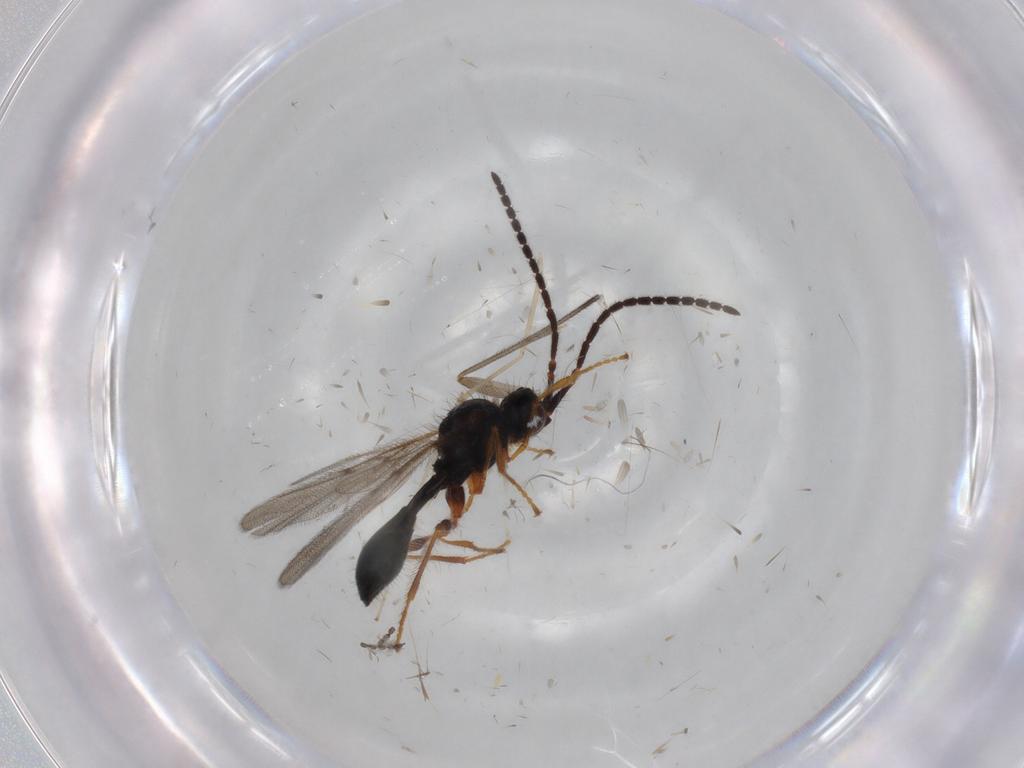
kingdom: Animalia
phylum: Arthropoda
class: Insecta
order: Hymenoptera
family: Diapriidae
